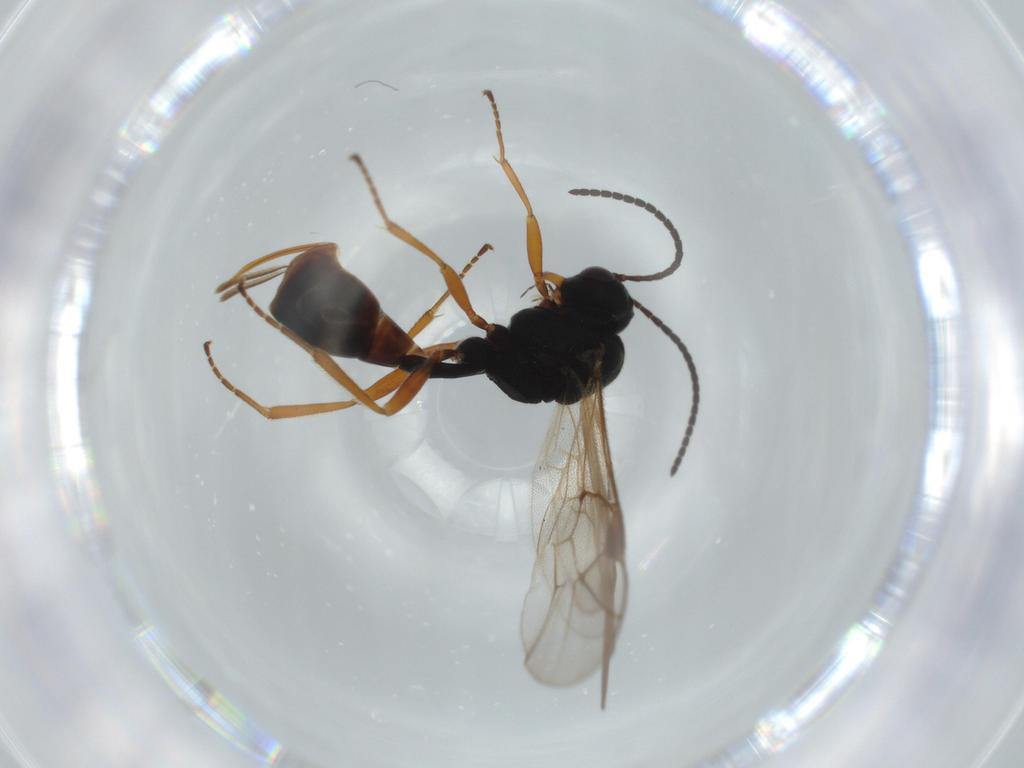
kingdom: Animalia
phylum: Arthropoda
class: Insecta
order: Hymenoptera
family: Ichneumonidae
